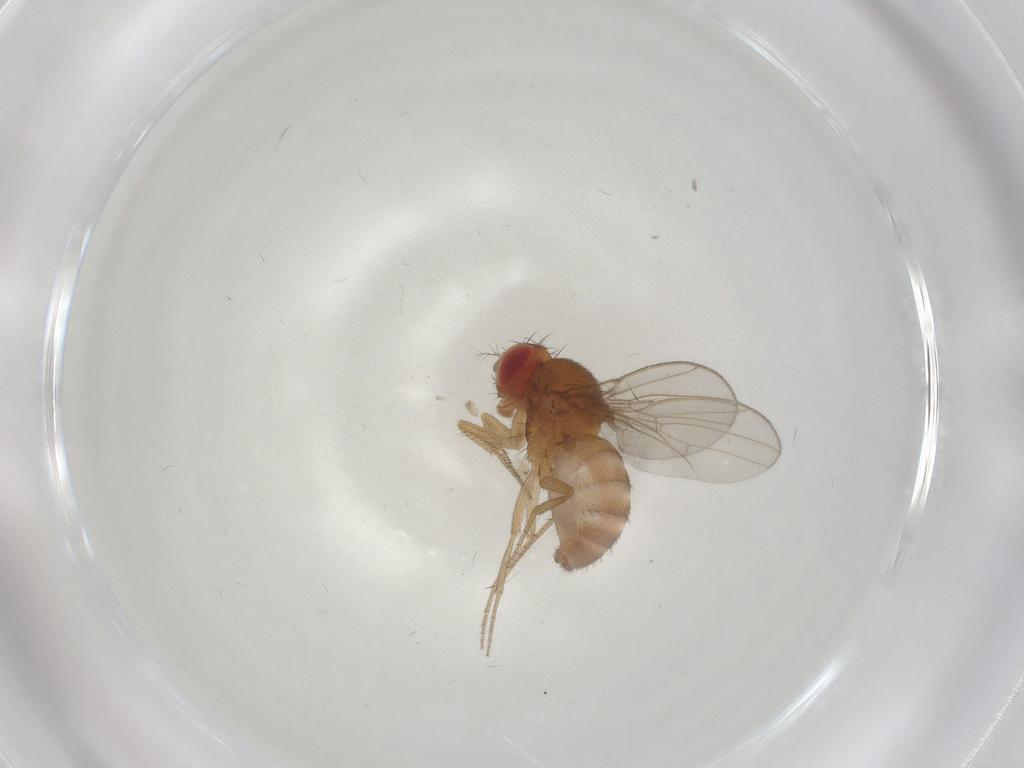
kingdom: Animalia
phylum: Arthropoda
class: Insecta
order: Diptera
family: Drosophilidae
